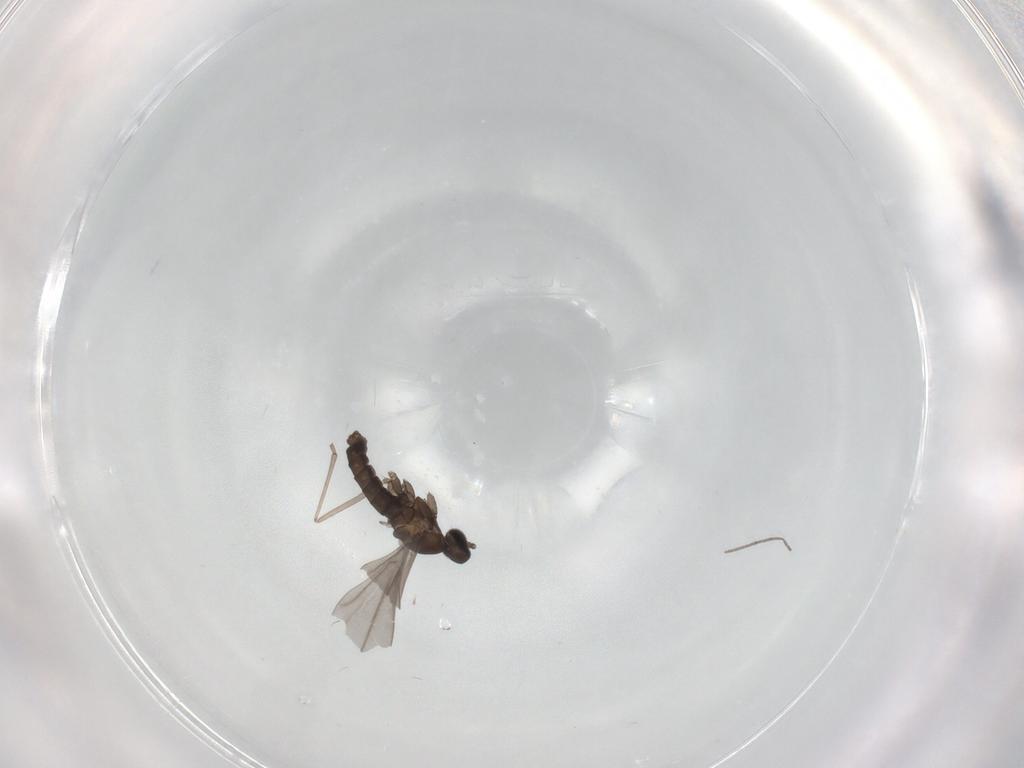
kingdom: Animalia
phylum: Arthropoda
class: Insecta
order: Diptera
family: Cecidomyiidae
